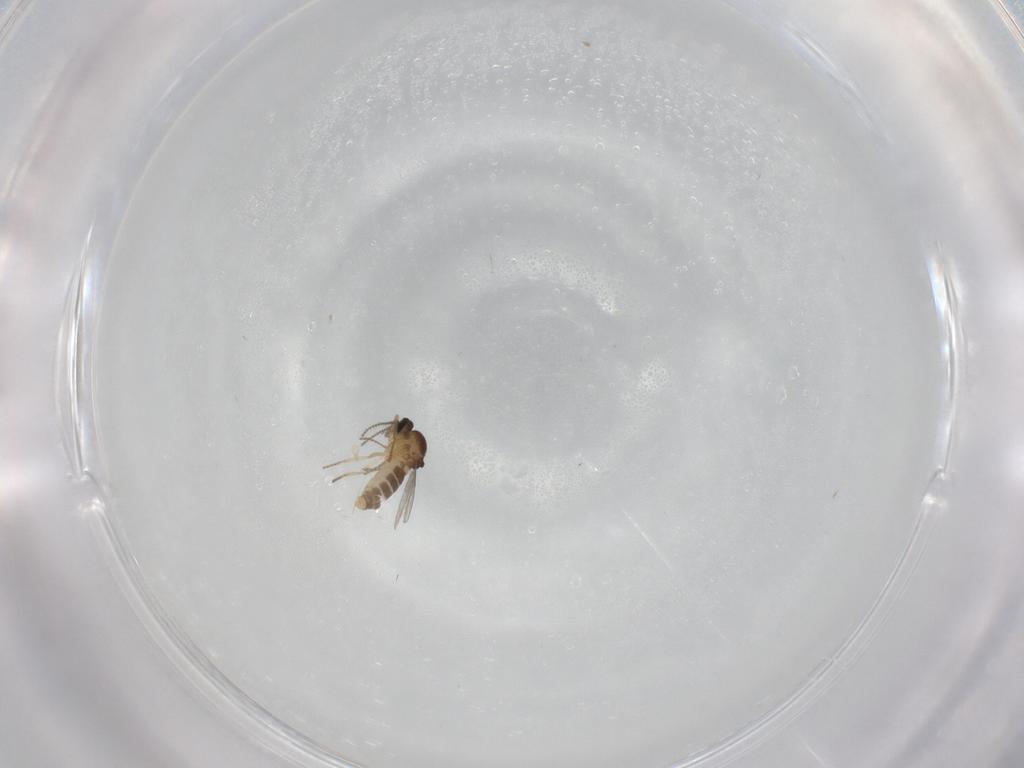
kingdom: Animalia
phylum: Arthropoda
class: Insecta
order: Diptera
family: Ceratopogonidae
